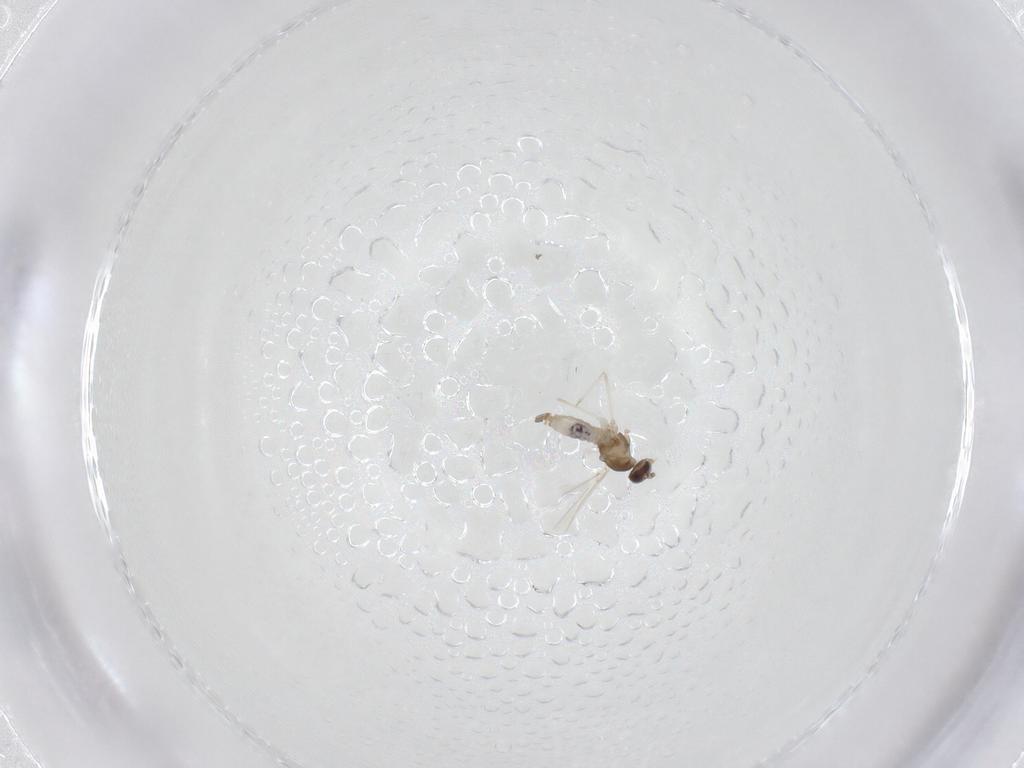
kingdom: Animalia
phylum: Arthropoda
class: Insecta
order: Diptera
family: Cecidomyiidae
